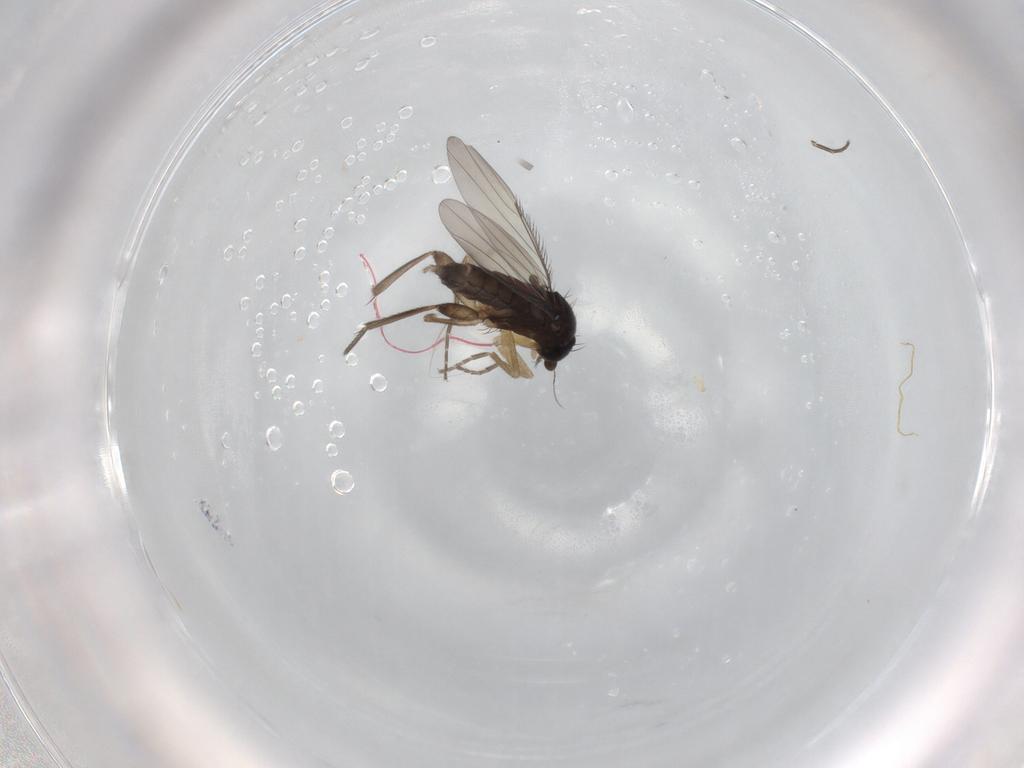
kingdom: Animalia
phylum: Arthropoda
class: Insecta
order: Diptera
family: Phoridae
